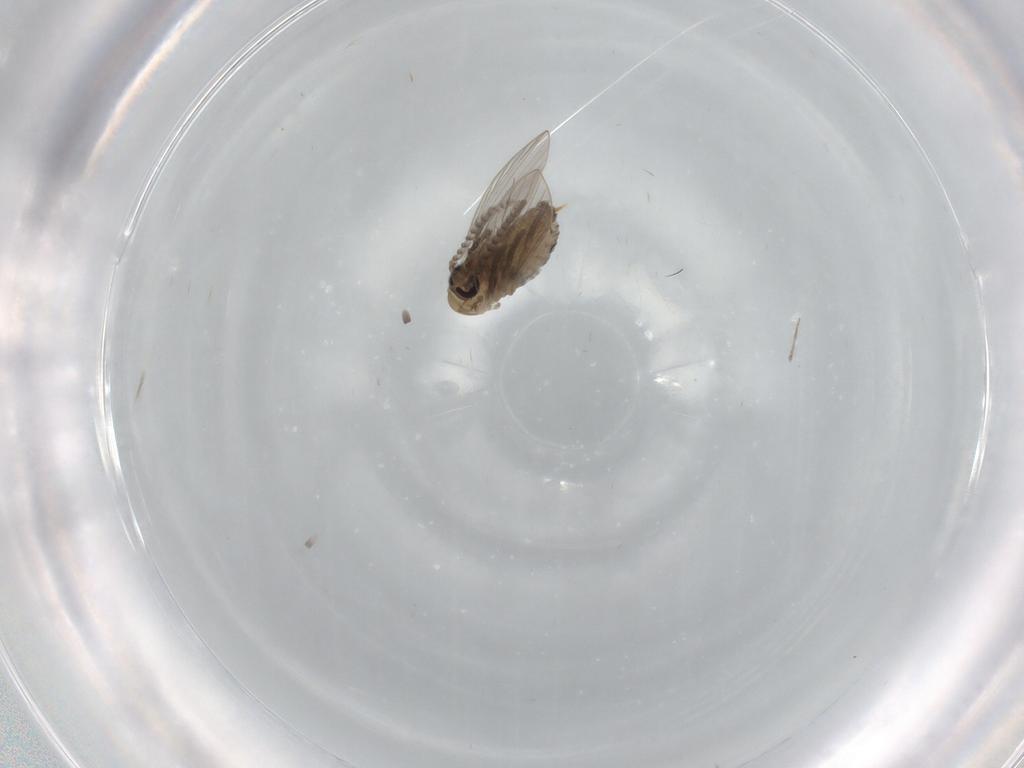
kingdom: Animalia
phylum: Arthropoda
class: Insecta
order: Diptera
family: Psychodidae
